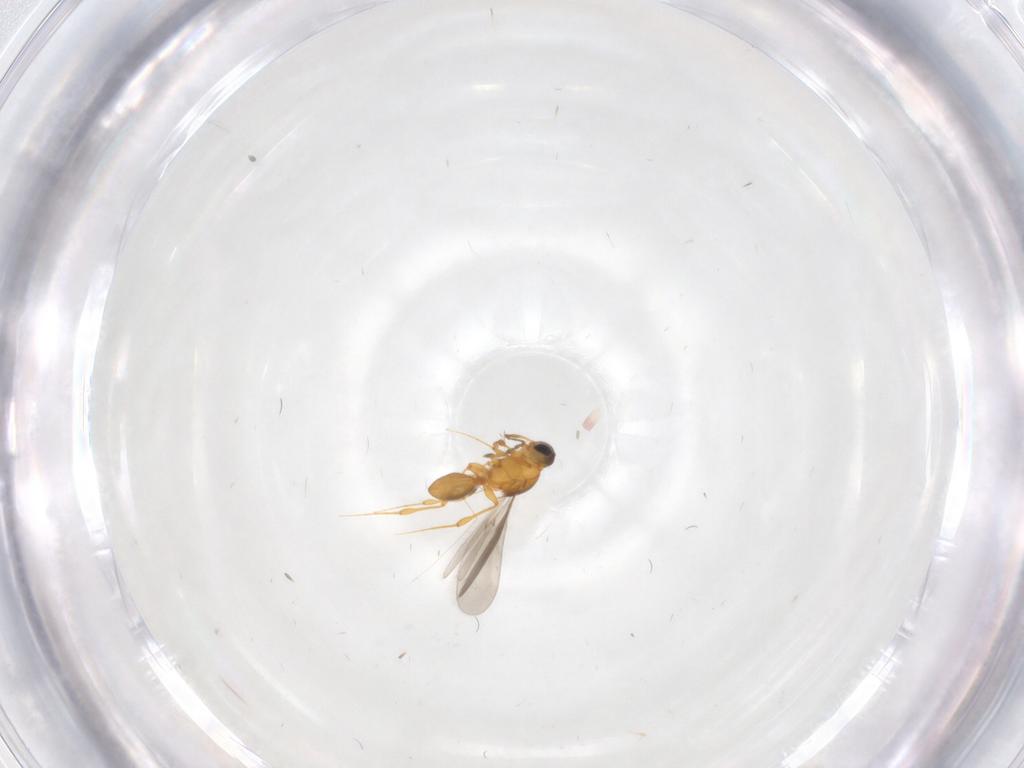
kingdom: Animalia
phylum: Arthropoda
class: Insecta
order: Hymenoptera
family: Platygastridae
